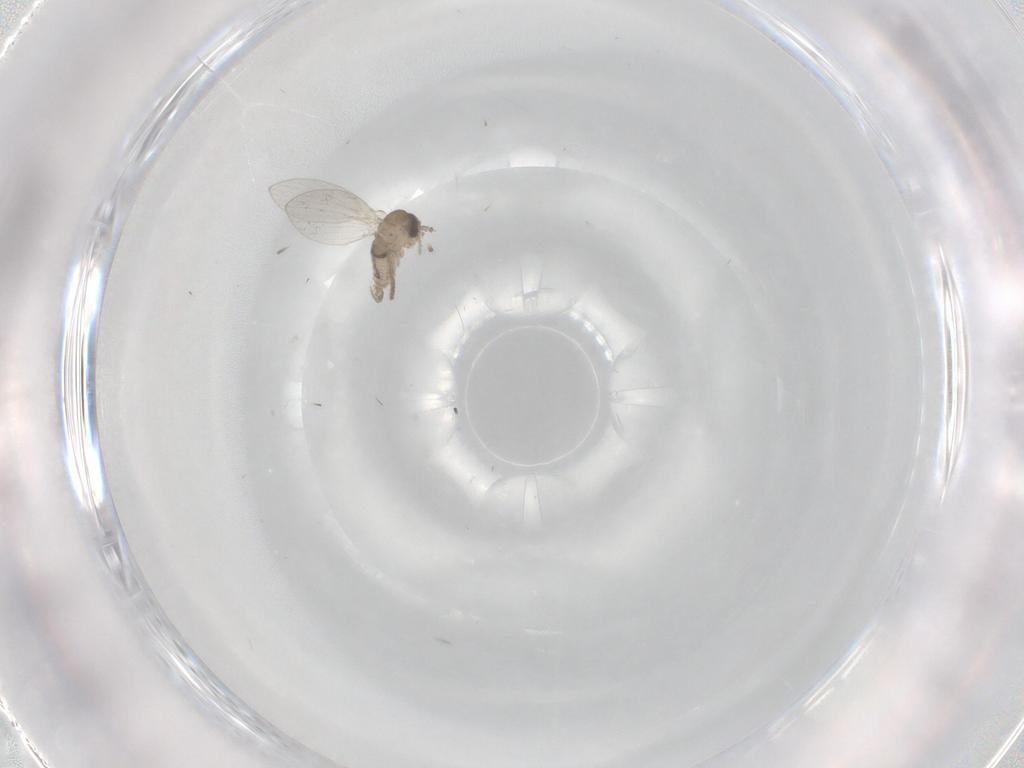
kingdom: Animalia
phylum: Arthropoda
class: Insecta
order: Diptera
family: Psychodidae
